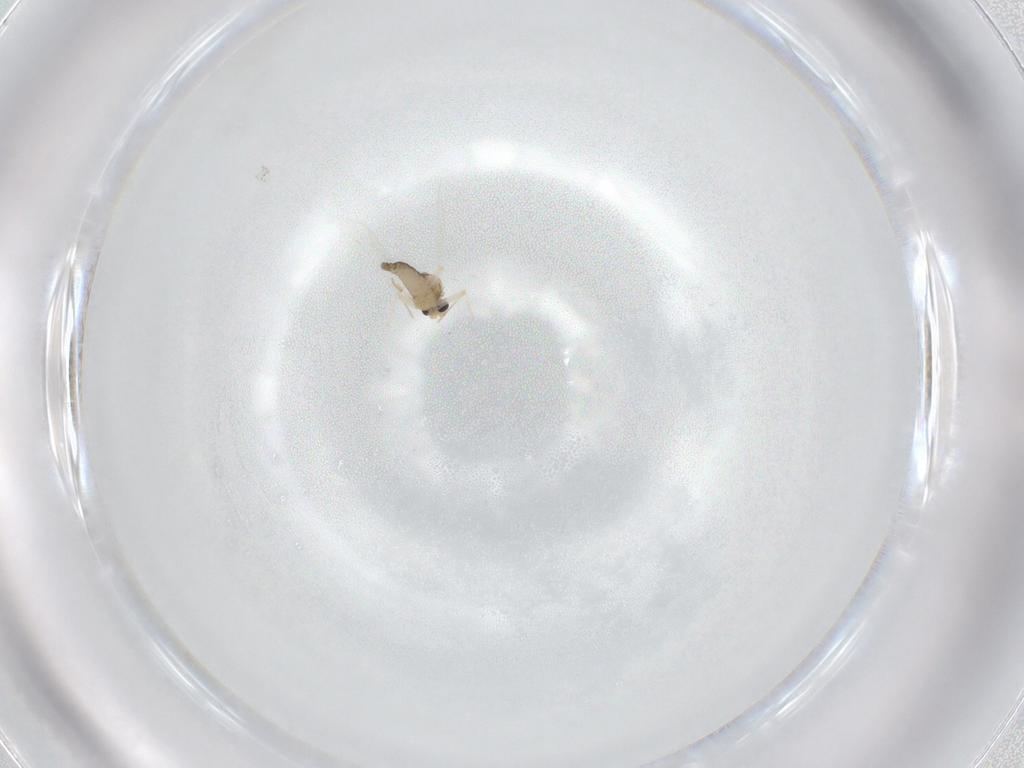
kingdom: Animalia
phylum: Arthropoda
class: Insecta
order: Diptera
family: Chironomidae
